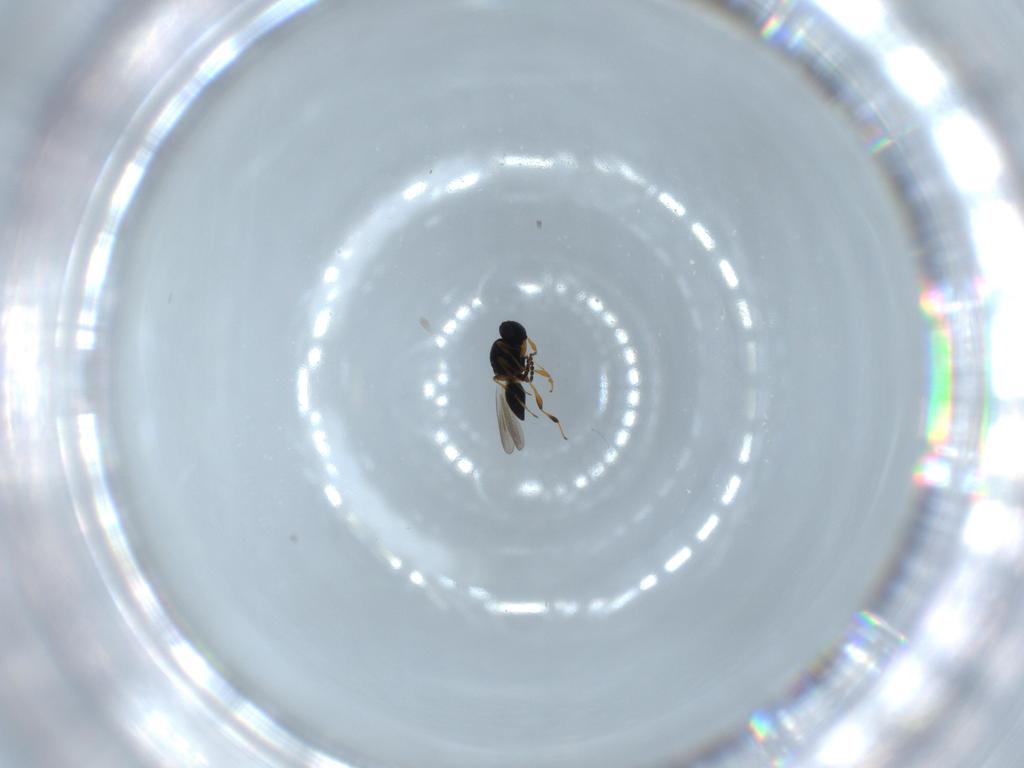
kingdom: Animalia
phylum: Arthropoda
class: Insecta
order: Hymenoptera
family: Platygastridae
